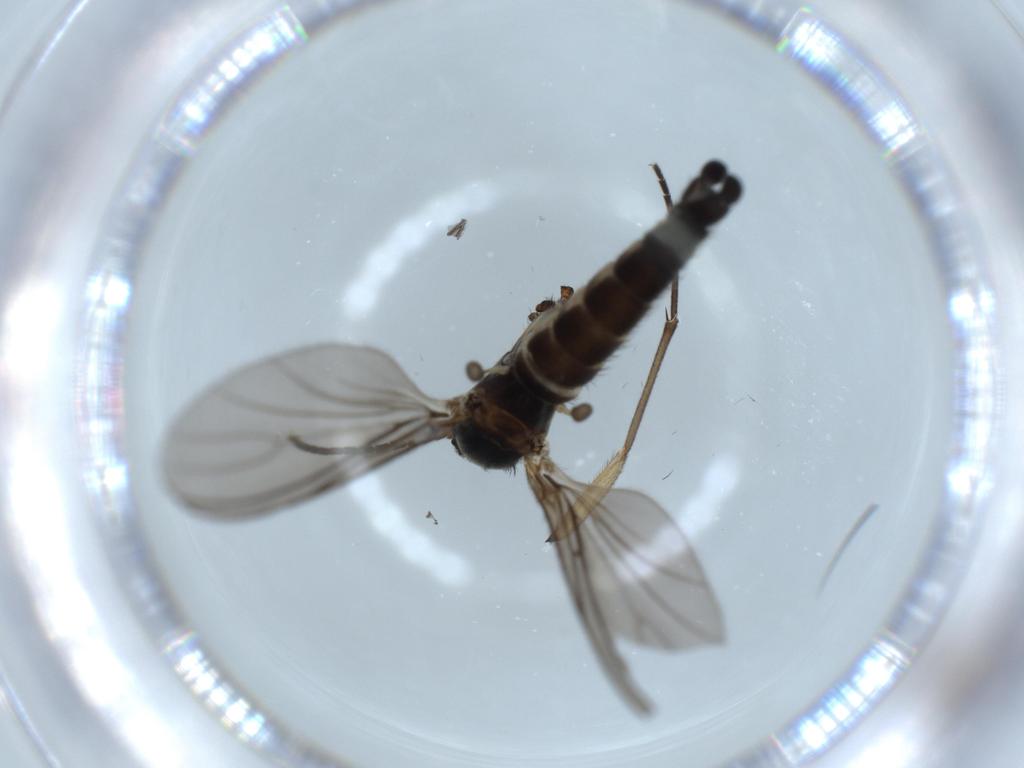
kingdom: Animalia
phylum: Arthropoda
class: Insecta
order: Diptera
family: Sciaridae
